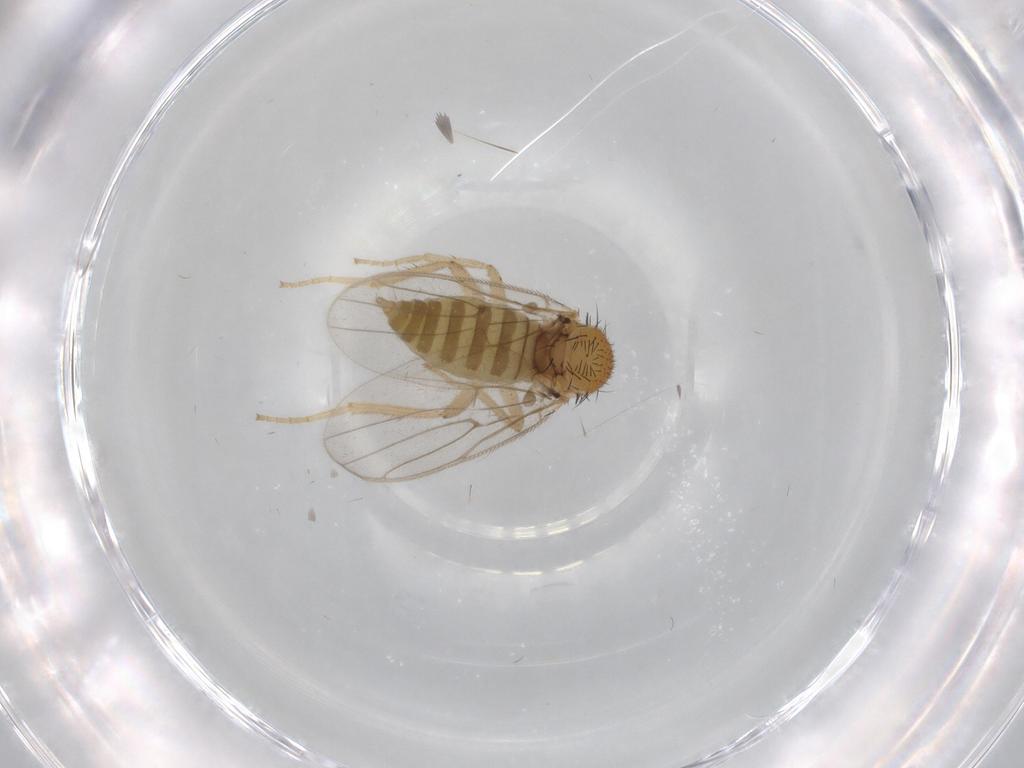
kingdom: Animalia
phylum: Arthropoda
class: Insecta
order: Diptera
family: Hybotidae
